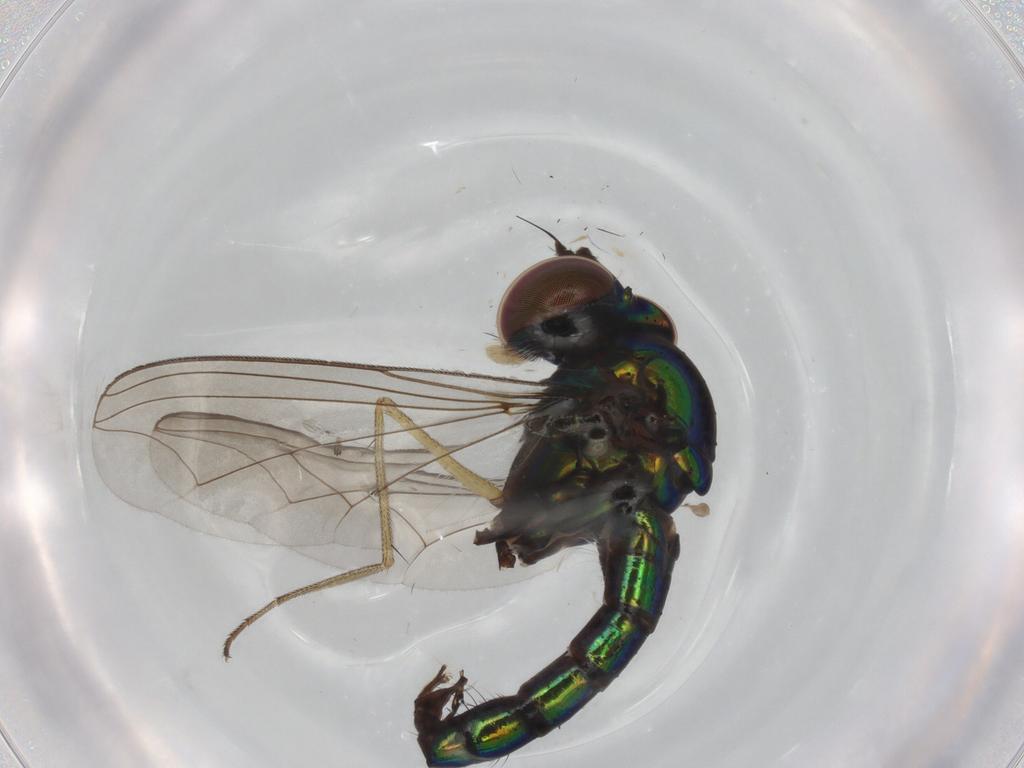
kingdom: Animalia
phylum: Arthropoda
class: Insecta
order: Diptera
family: Dolichopodidae
